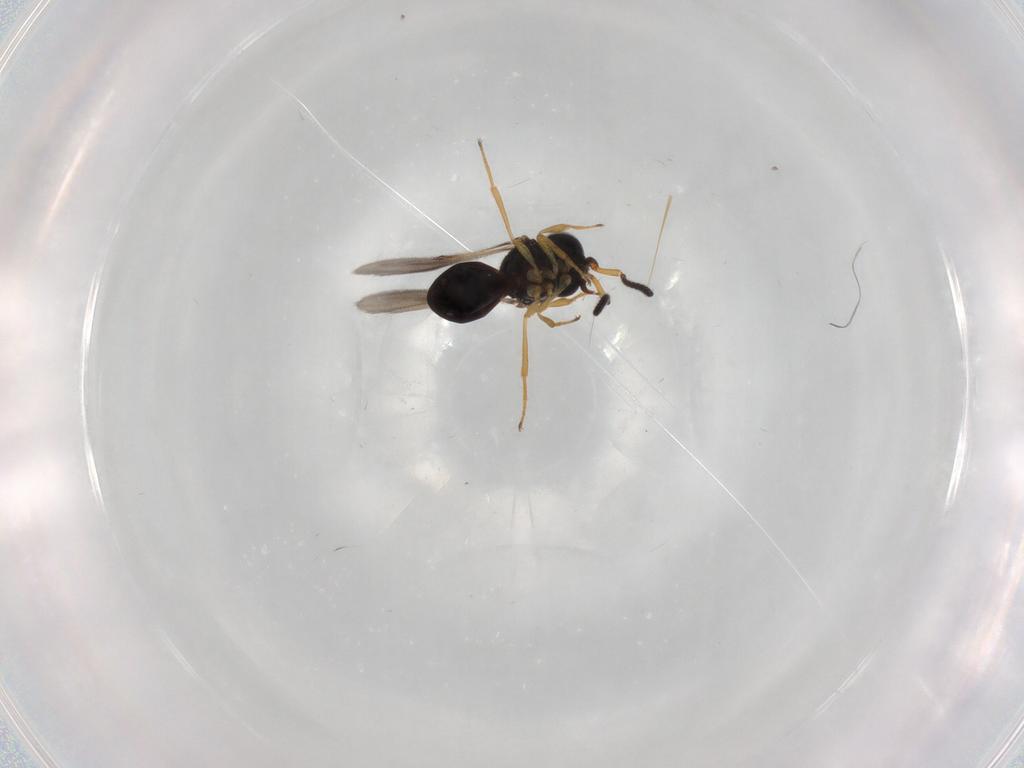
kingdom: Animalia
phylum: Arthropoda
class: Insecta
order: Hymenoptera
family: Scelionidae
